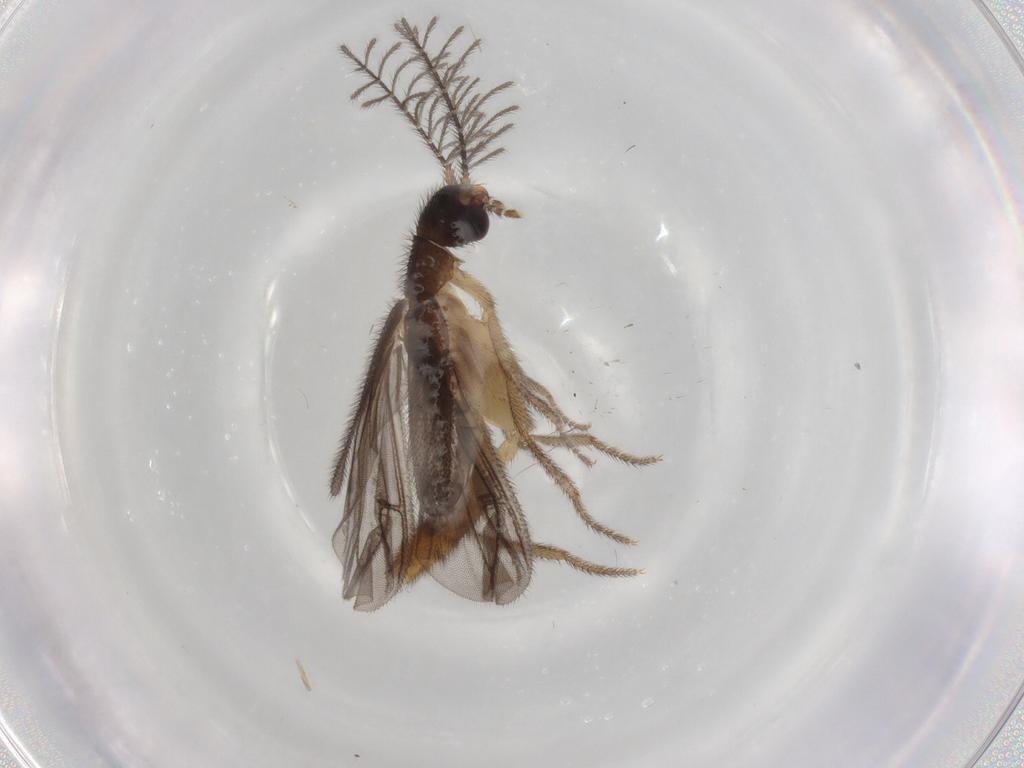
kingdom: Animalia
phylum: Arthropoda
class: Insecta
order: Coleoptera
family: Phengodidae
